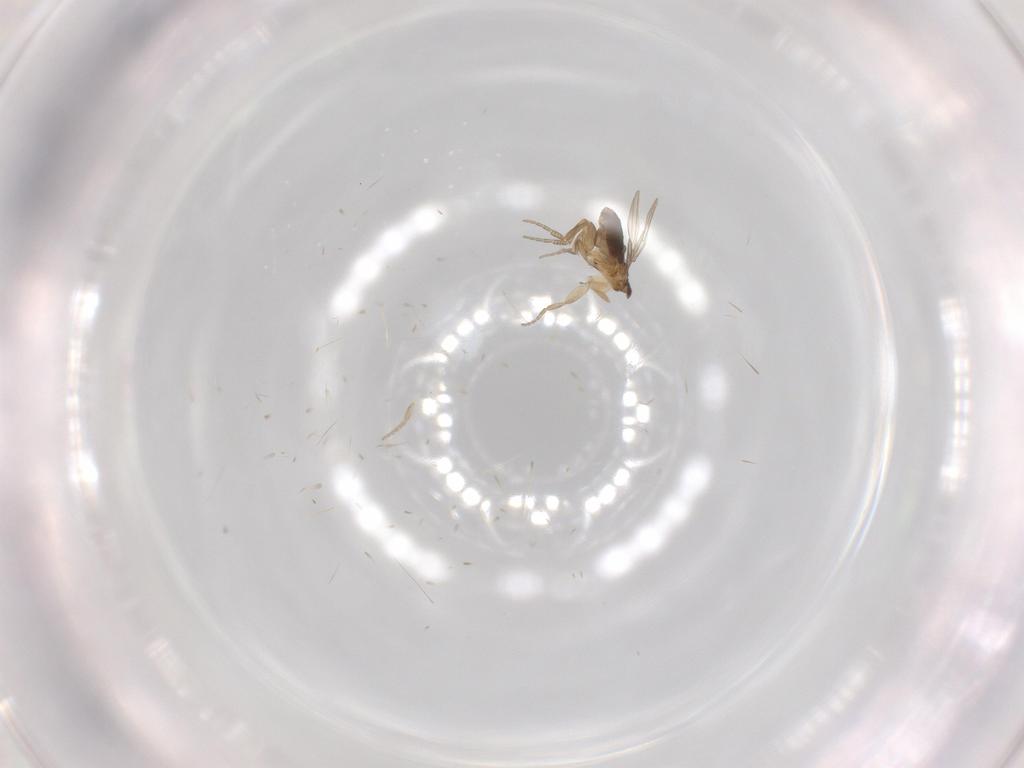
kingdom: Animalia
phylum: Arthropoda
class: Insecta
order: Diptera
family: Phoridae
